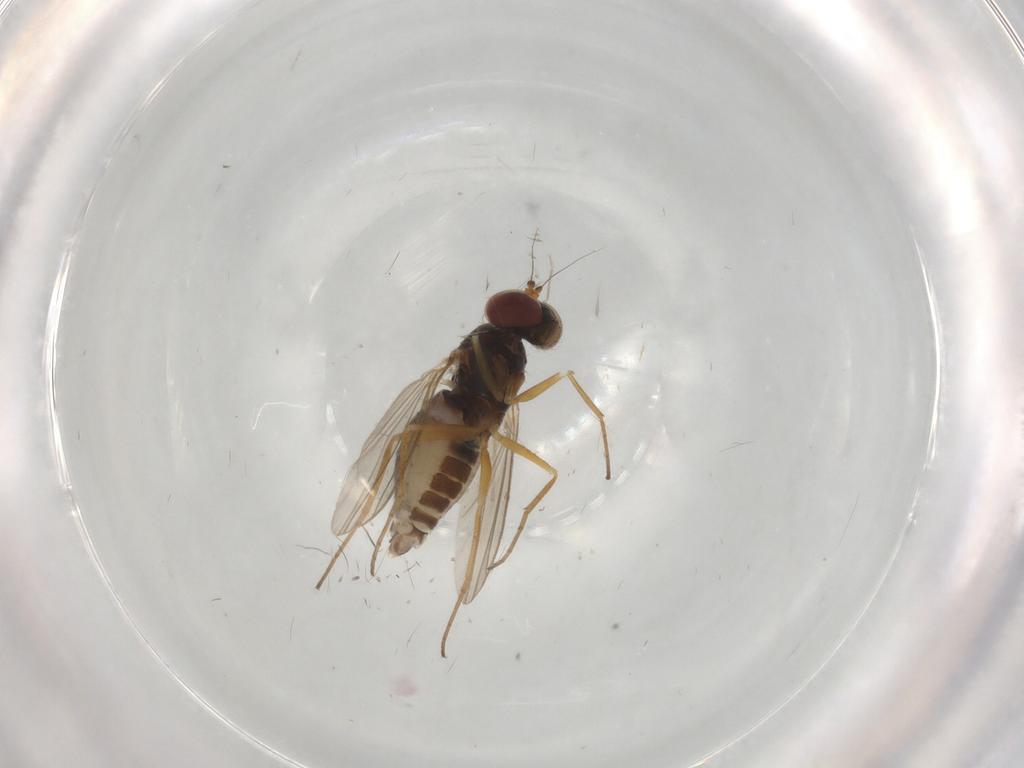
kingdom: Animalia
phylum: Arthropoda
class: Insecta
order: Diptera
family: Dolichopodidae
